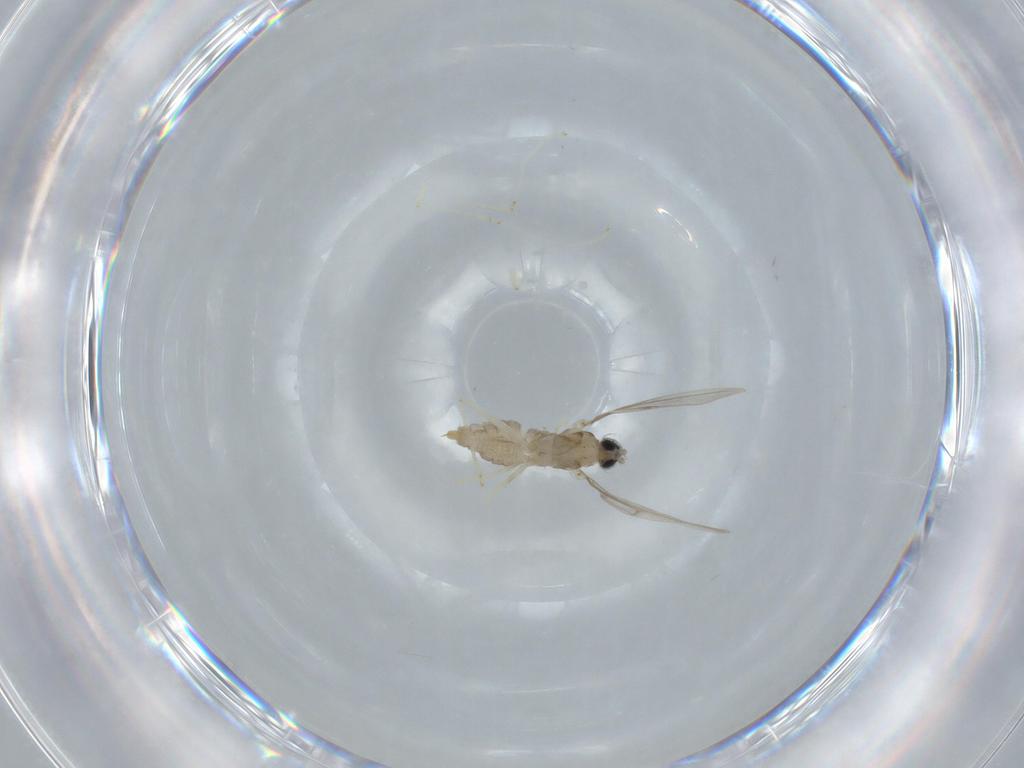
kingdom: Animalia
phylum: Arthropoda
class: Insecta
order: Diptera
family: Cecidomyiidae
